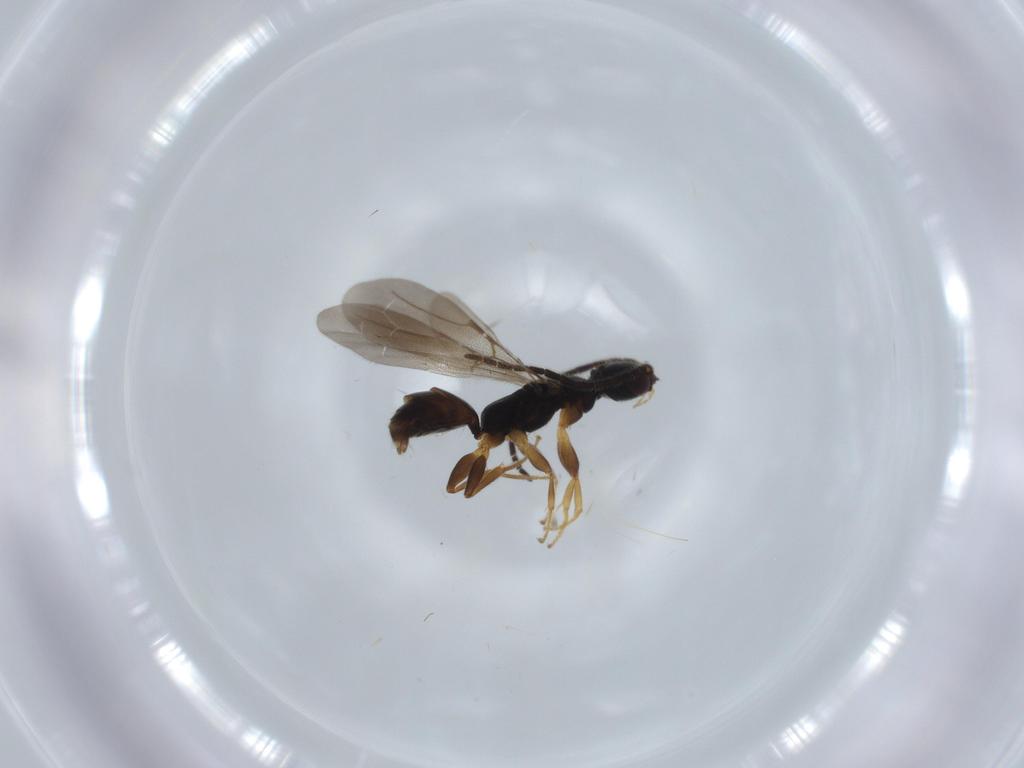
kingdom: Animalia
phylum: Arthropoda
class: Insecta
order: Hymenoptera
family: Bethylidae
